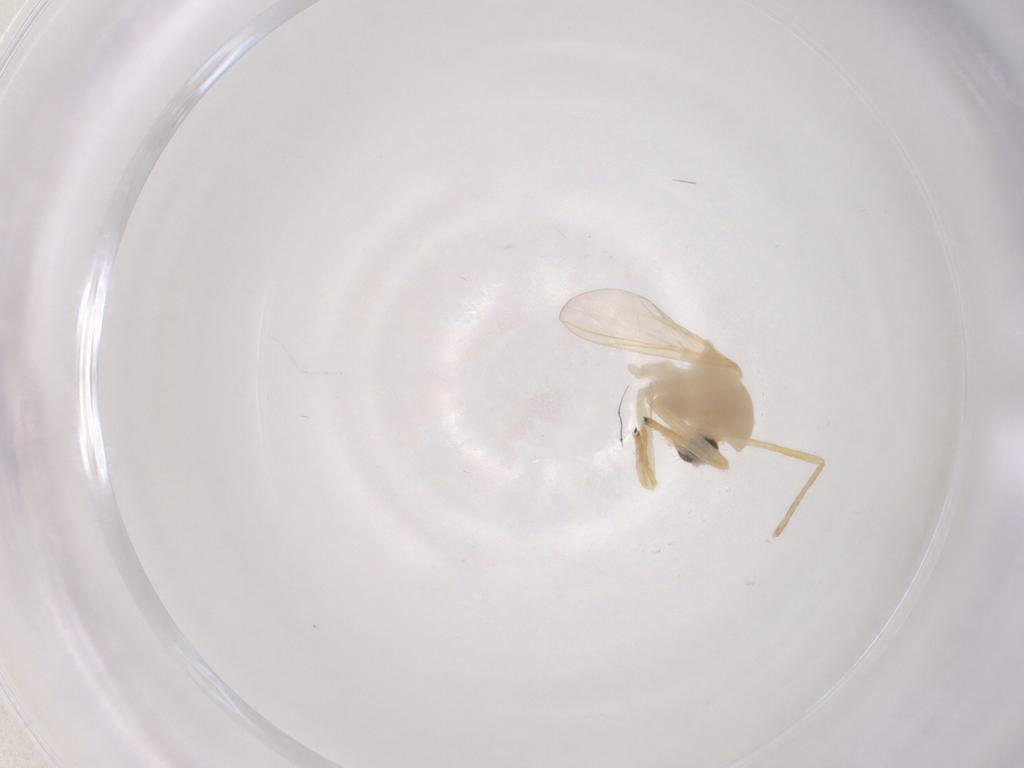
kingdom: Animalia
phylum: Arthropoda
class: Insecta
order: Diptera
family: Chironomidae
